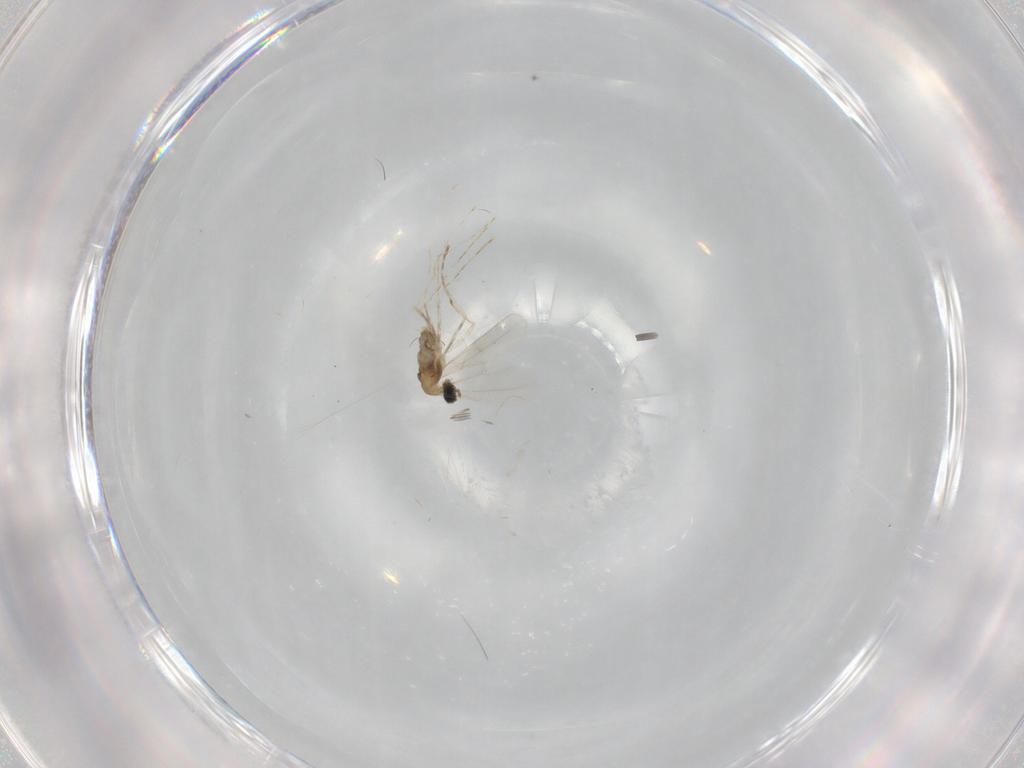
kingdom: Animalia
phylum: Arthropoda
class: Insecta
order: Diptera
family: Cecidomyiidae
